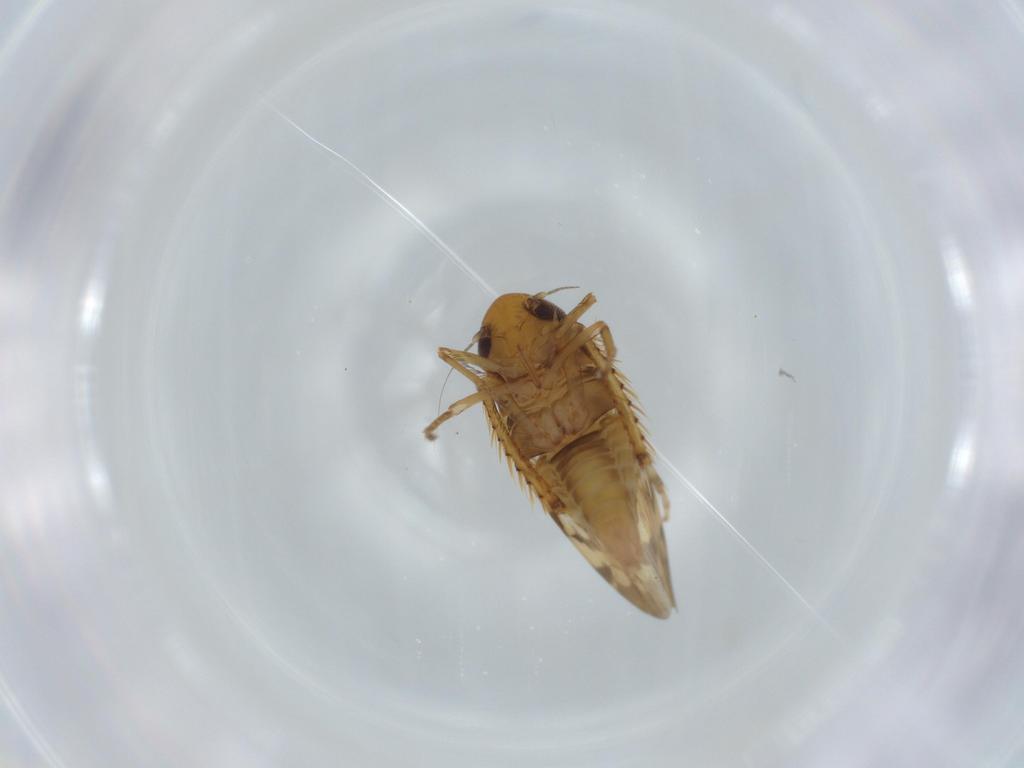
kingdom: Animalia
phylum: Arthropoda
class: Insecta
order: Hemiptera
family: Cicadellidae
